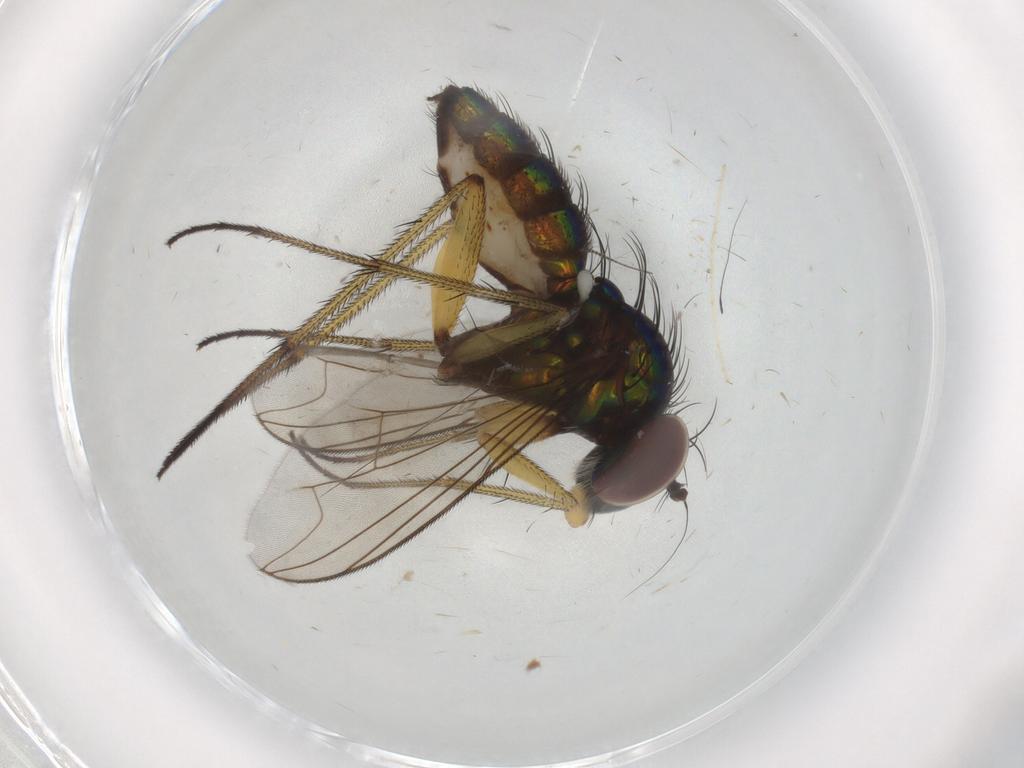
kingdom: Animalia
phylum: Arthropoda
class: Insecta
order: Diptera
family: Dolichopodidae
